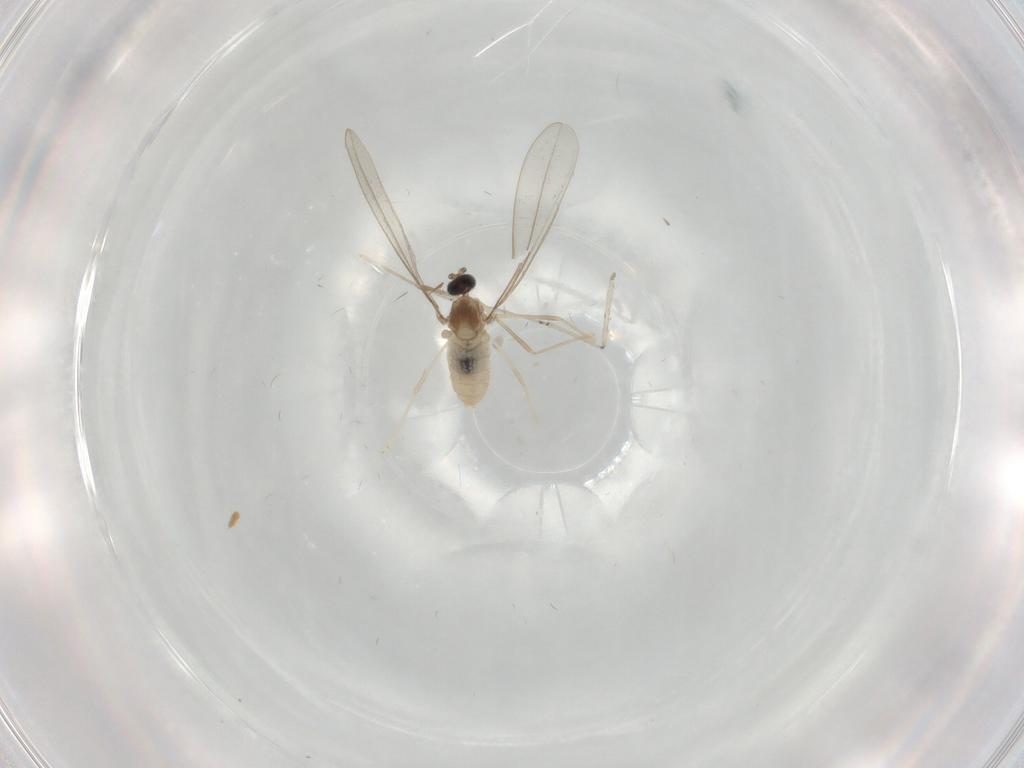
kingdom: Animalia
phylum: Arthropoda
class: Insecta
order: Diptera
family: Cecidomyiidae
